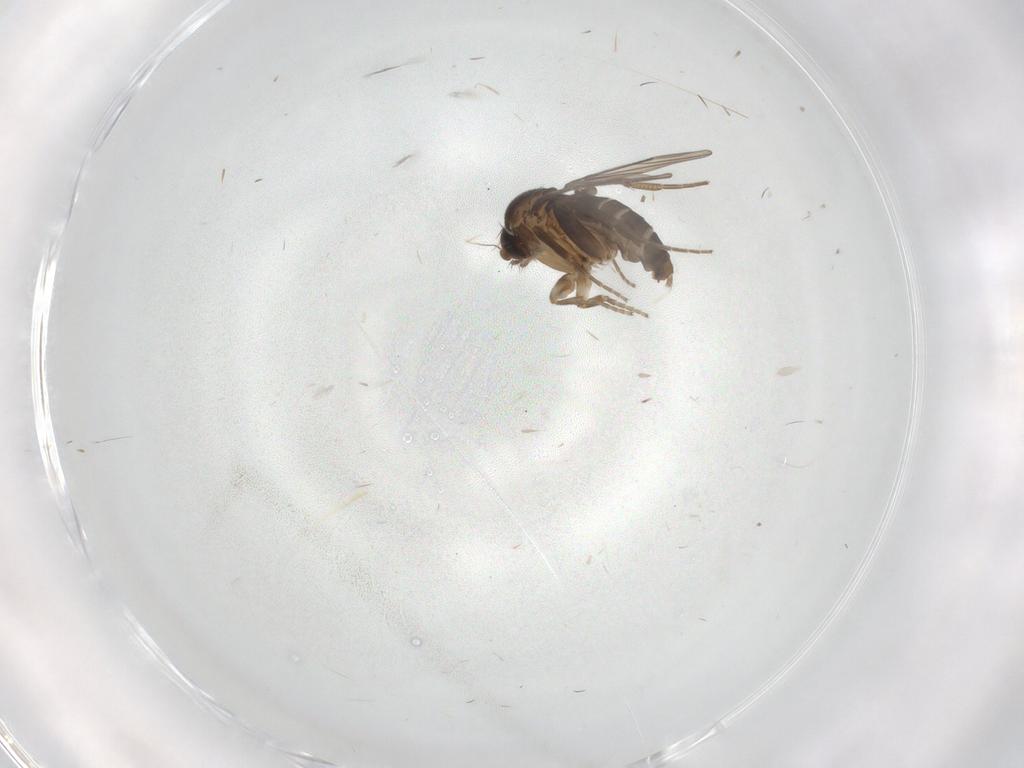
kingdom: Animalia
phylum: Arthropoda
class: Insecta
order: Diptera
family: Phoridae
